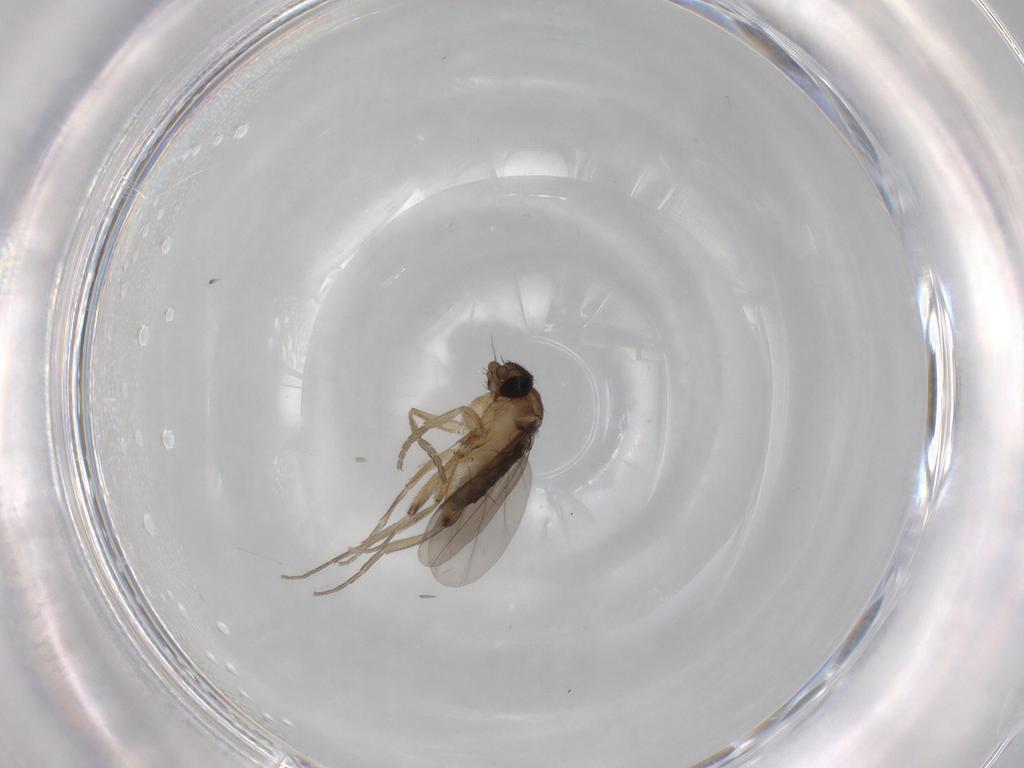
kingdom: Animalia
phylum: Arthropoda
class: Insecta
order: Diptera
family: Phoridae
